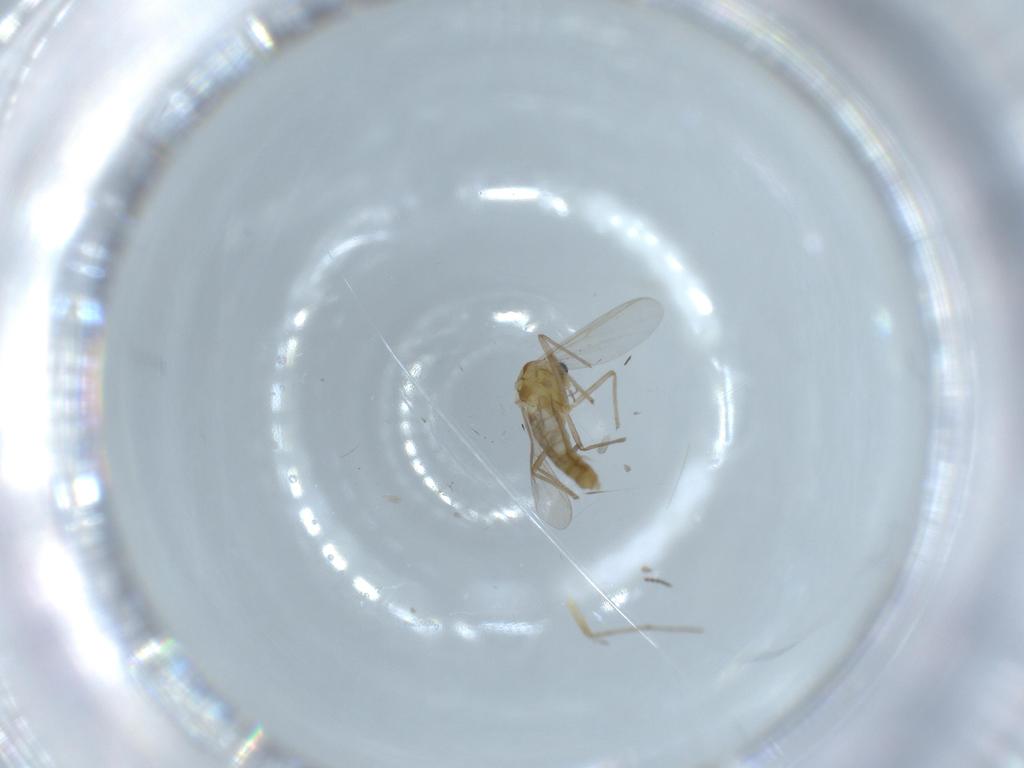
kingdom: Animalia
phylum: Arthropoda
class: Insecta
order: Diptera
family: Chironomidae
